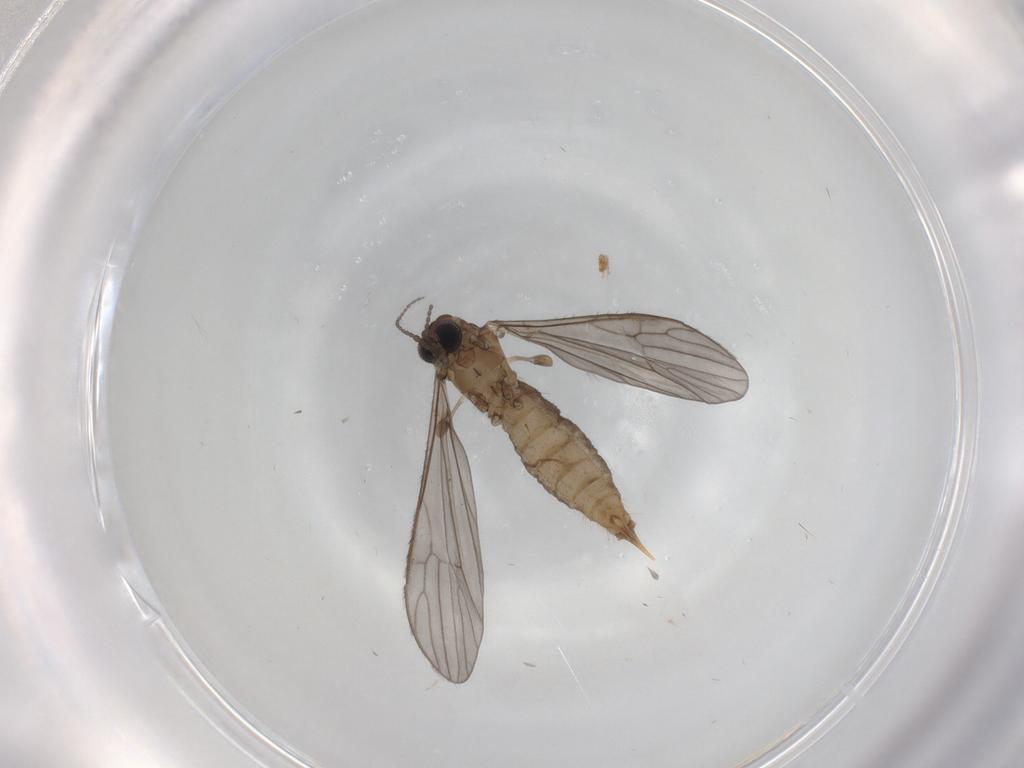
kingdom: Animalia
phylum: Arthropoda
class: Insecta
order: Diptera
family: Limoniidae
